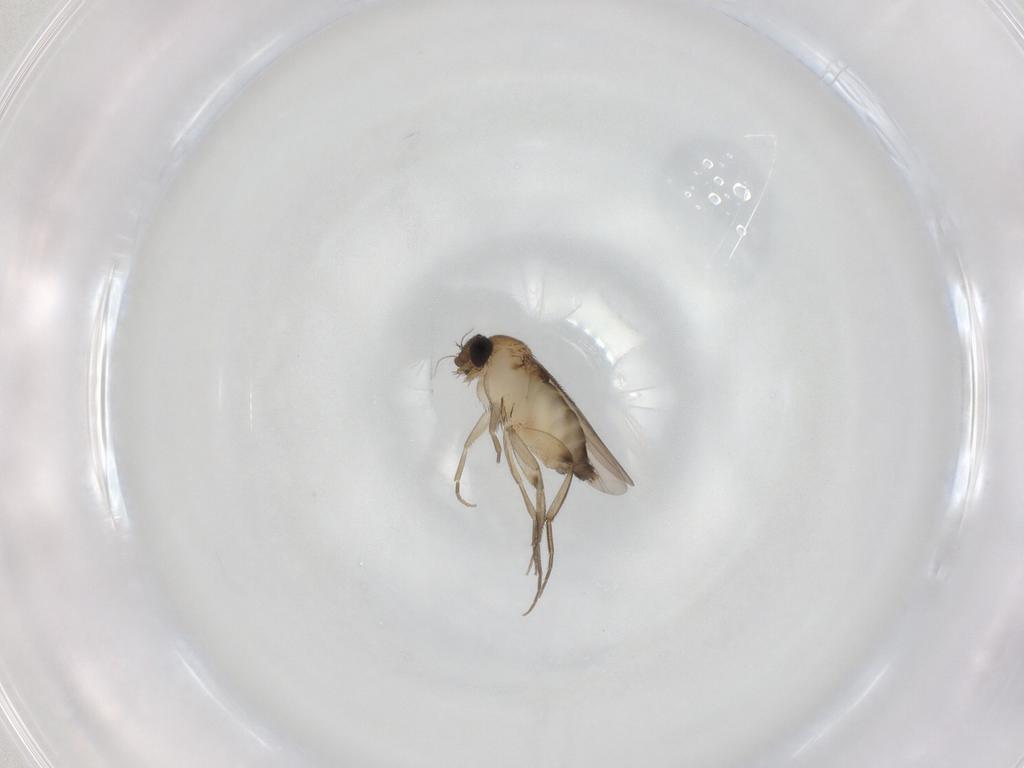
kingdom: Animalia
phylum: Arthropoda
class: Insecta
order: Diptera
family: Phoridae
